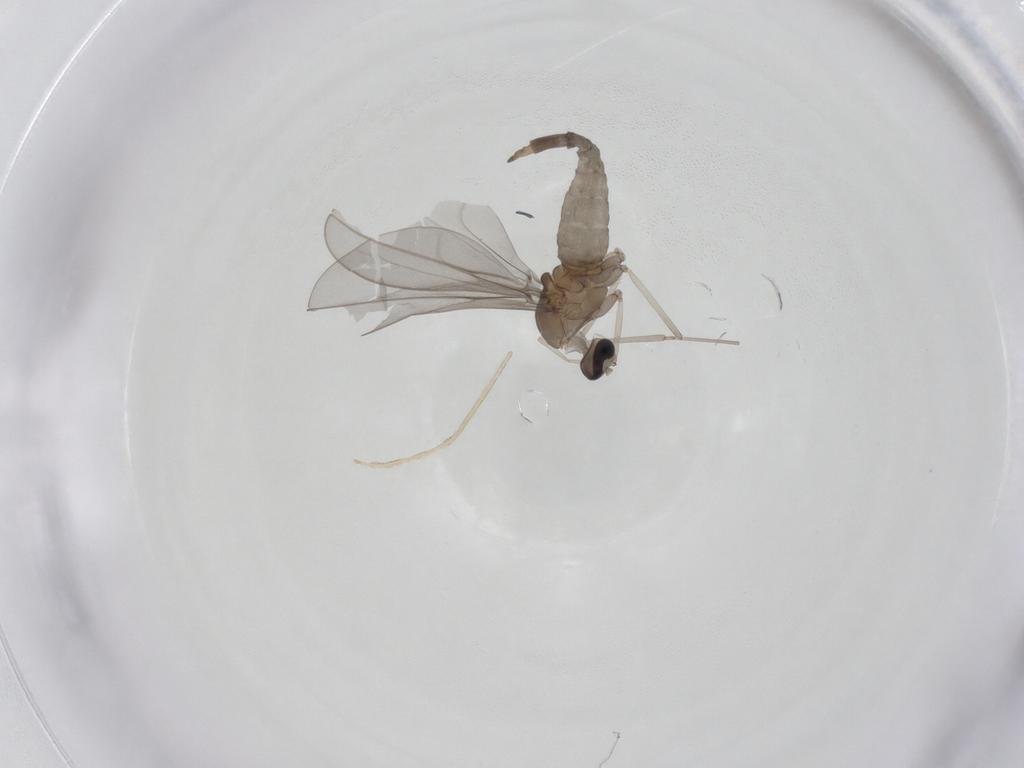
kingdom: Animalia
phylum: Arthropoda
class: Insecta
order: Diptera
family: Cecidomyiidae
